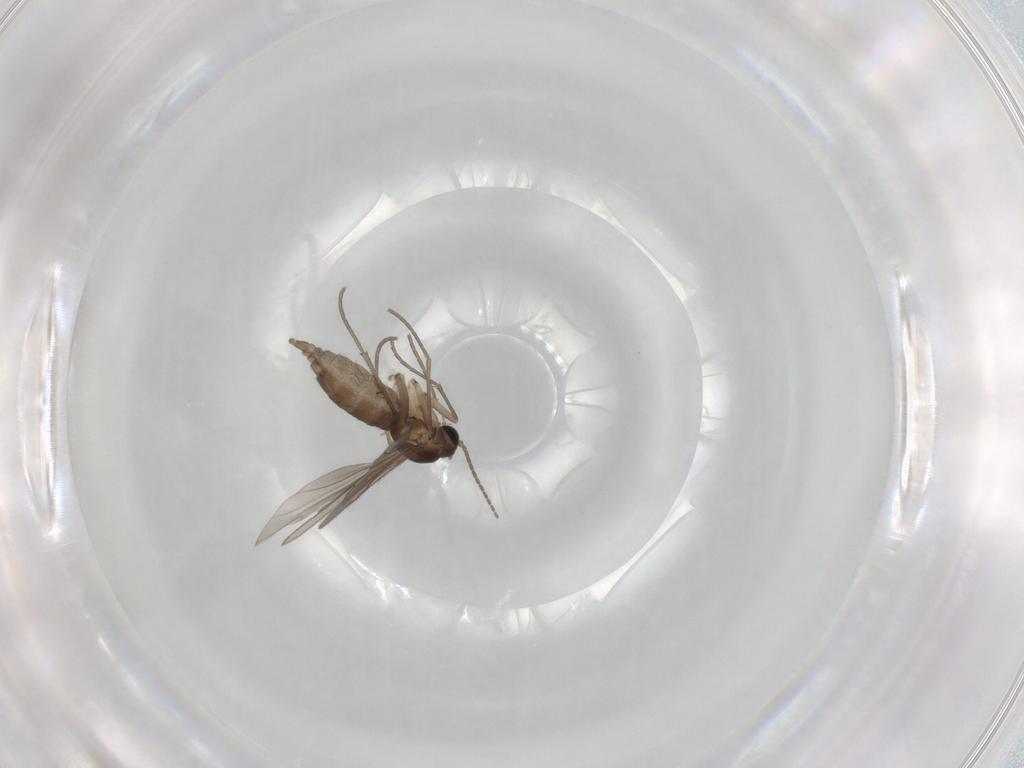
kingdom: Animalia
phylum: Arthropoda
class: Insecta
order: Diptera
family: Sciaridae
